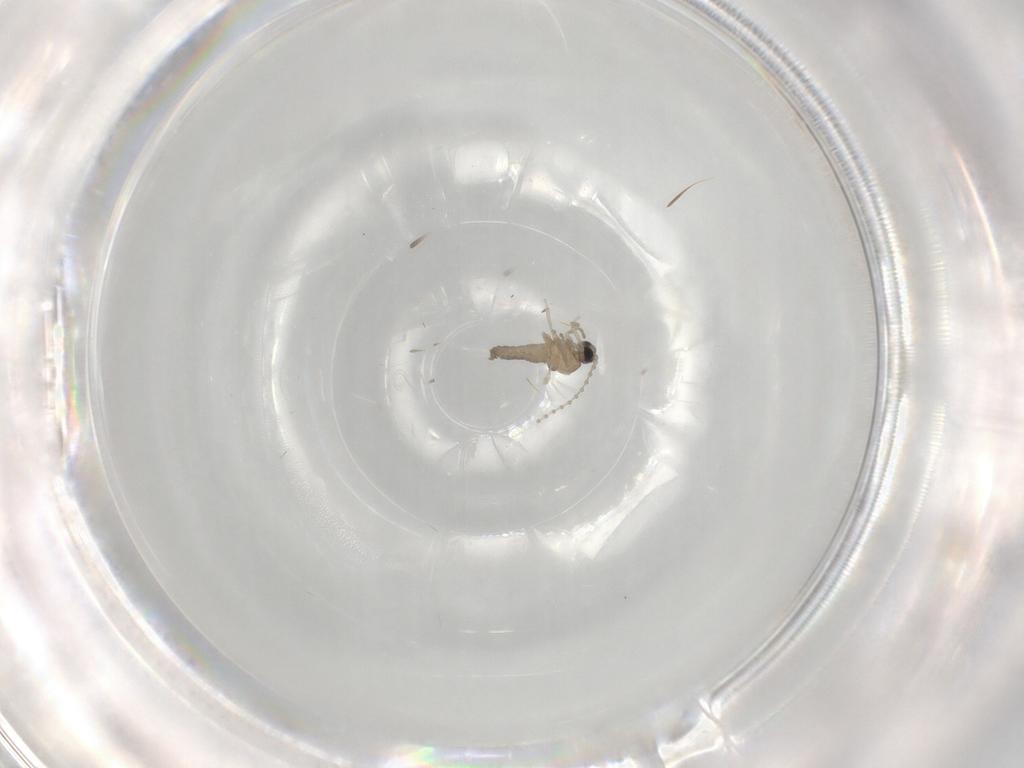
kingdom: Animalia
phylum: Arthropoda
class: Insecta
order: Diptera
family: Cecidomyiidae
